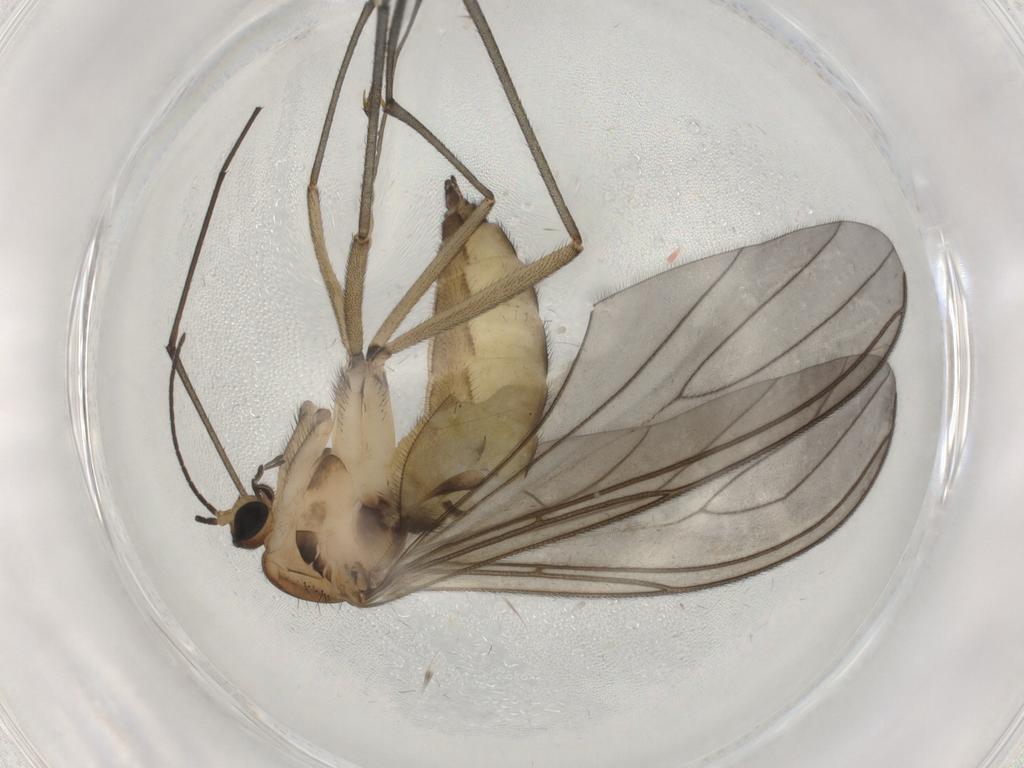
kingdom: Animalia
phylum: Arthropoda
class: Insecta
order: Diptera
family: Sciaridae
